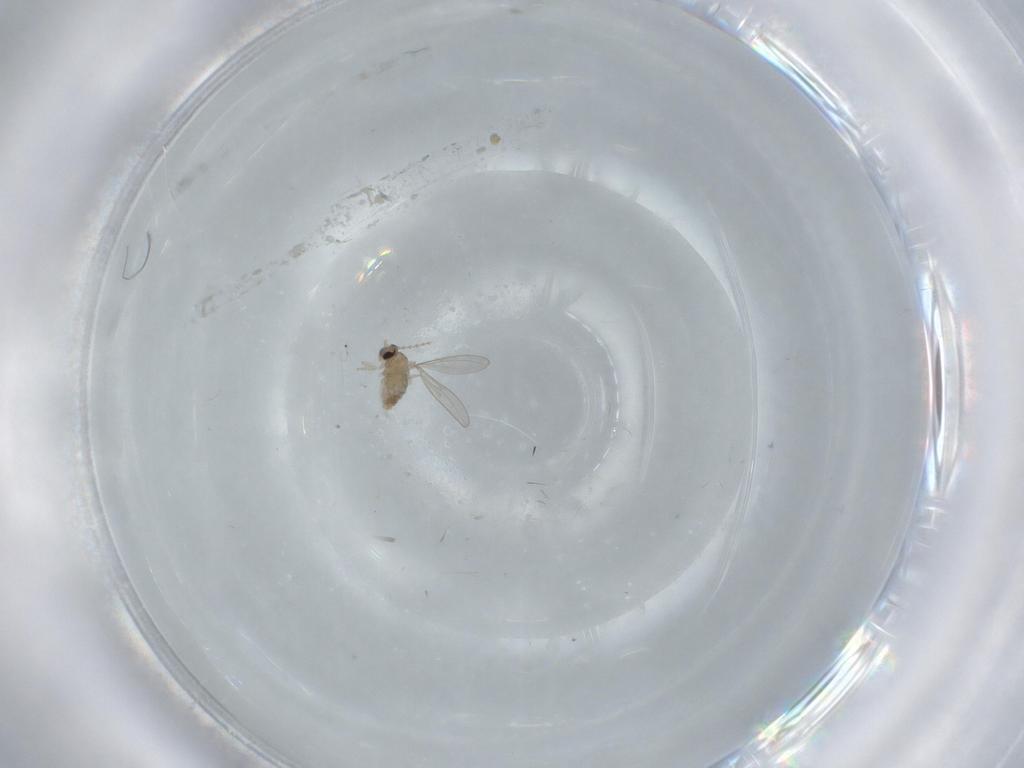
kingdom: Animalia
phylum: Arthropoda
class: Insecta
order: Diptera
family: Cecidomyiidae
